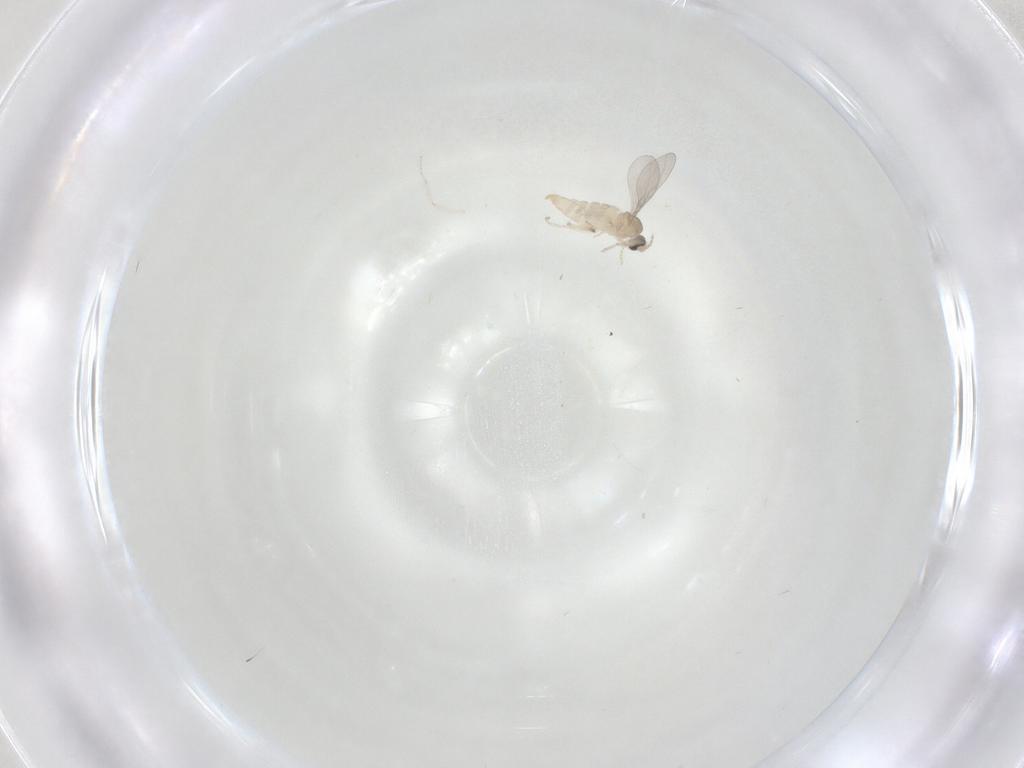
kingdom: Animalia
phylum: Arthropoda
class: Insecta
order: Diptera
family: Cecidomyiidae
